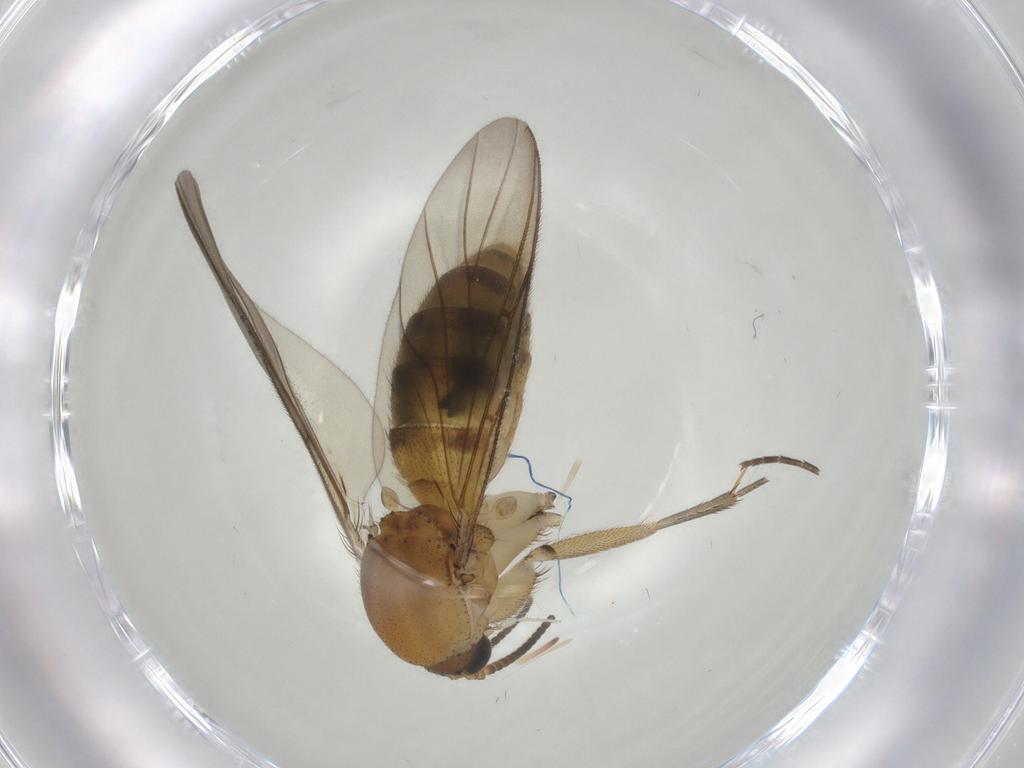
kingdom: Animalia
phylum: Arthropoda
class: Insecta
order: Diptera
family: Mycetophilidae
